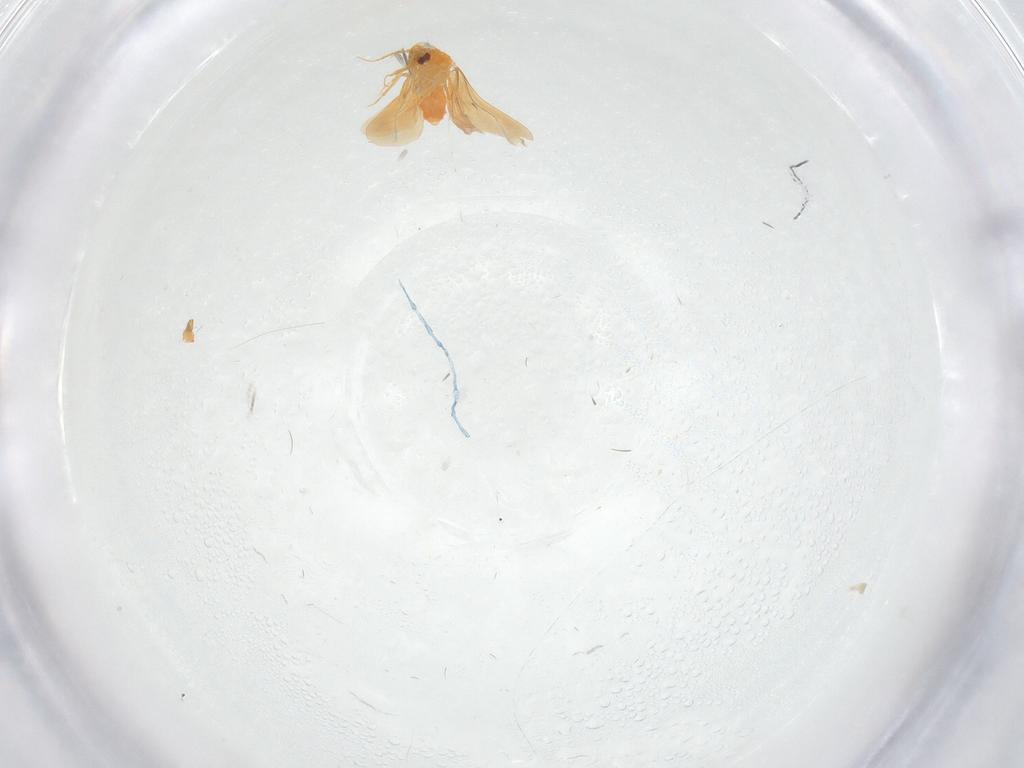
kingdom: Animalia
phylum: Arthropoda
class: Insecta
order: Hemiptera
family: Aleyrodidae
